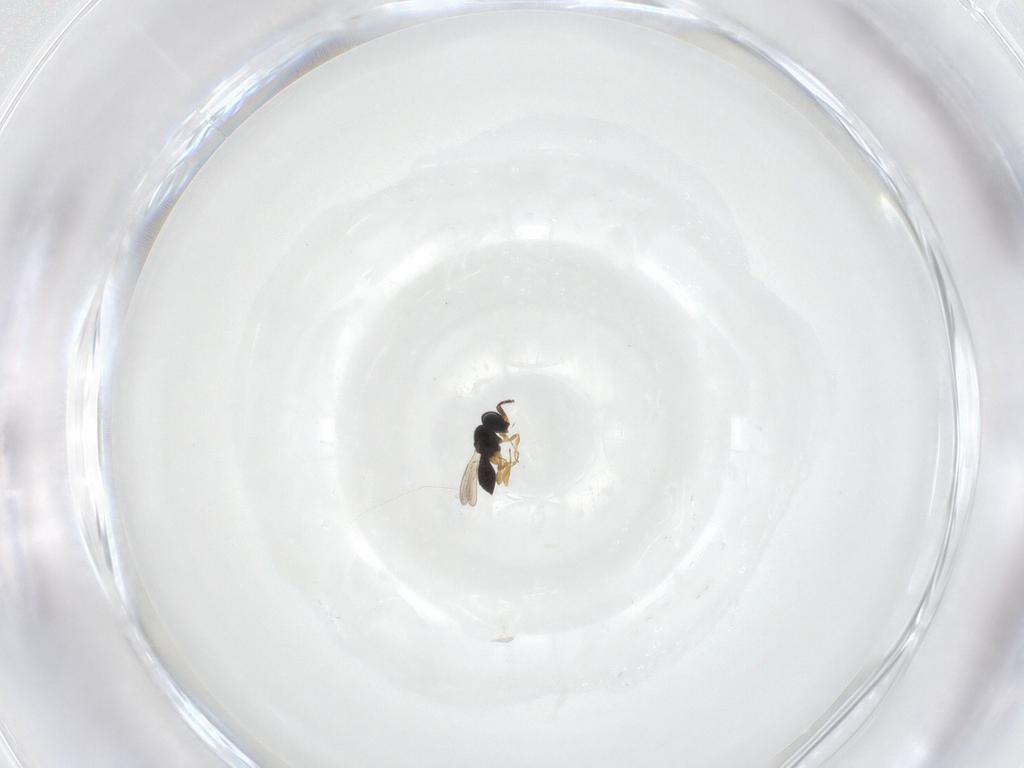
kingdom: Animalia
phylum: Arthropoda
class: Insecta
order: Hymenoptera
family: Scelionidae
